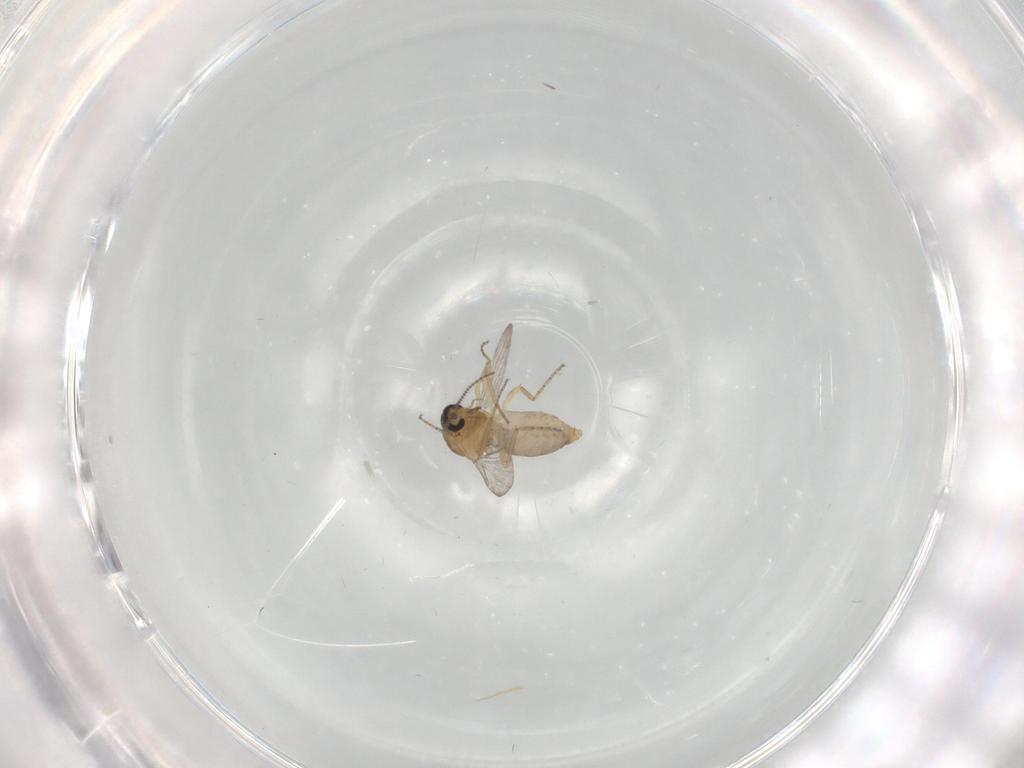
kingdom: Animalia
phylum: Arthropoda
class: Insecta
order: Diptera
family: Ceratopogonidae
